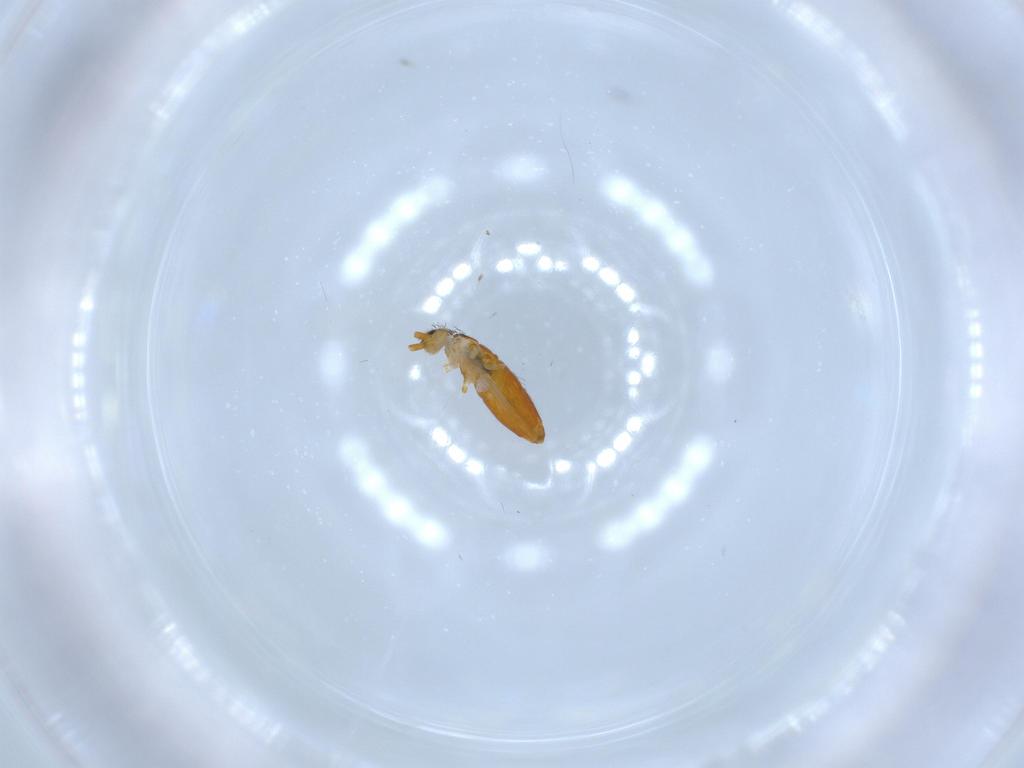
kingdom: Animalia
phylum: Arthropoda
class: Collembola
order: Entomobryomorpha
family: Entomobryidae
